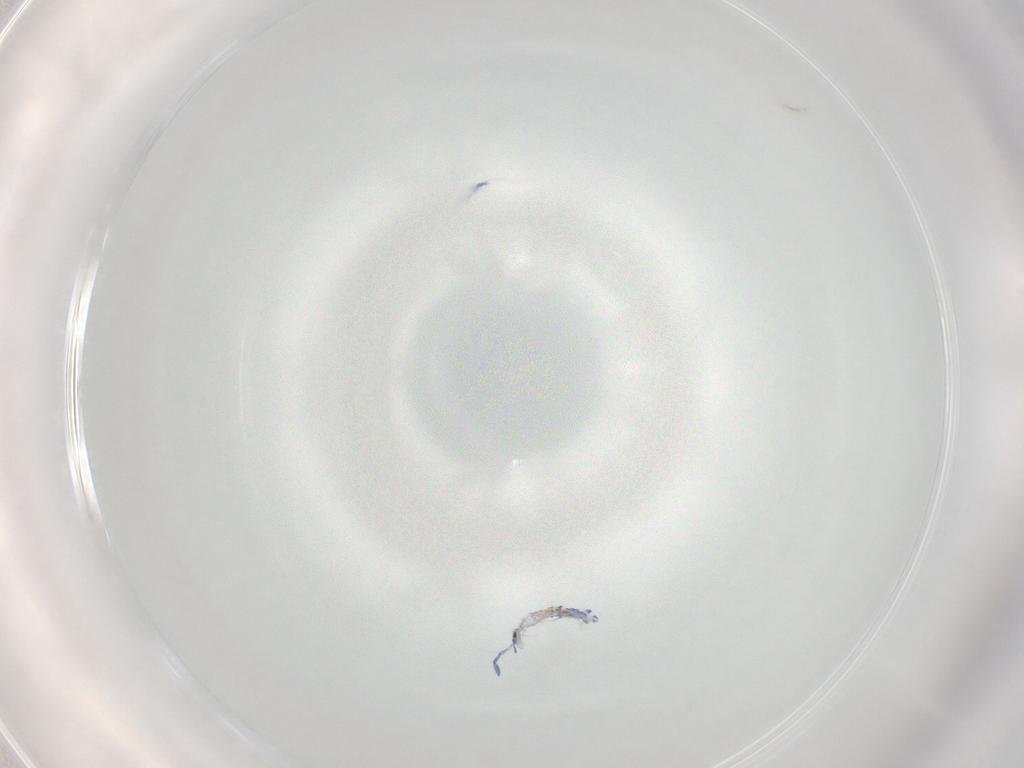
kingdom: Animalia
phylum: Arthropoda
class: Collembola
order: Entomobryomorpha
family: Entomobryidae
